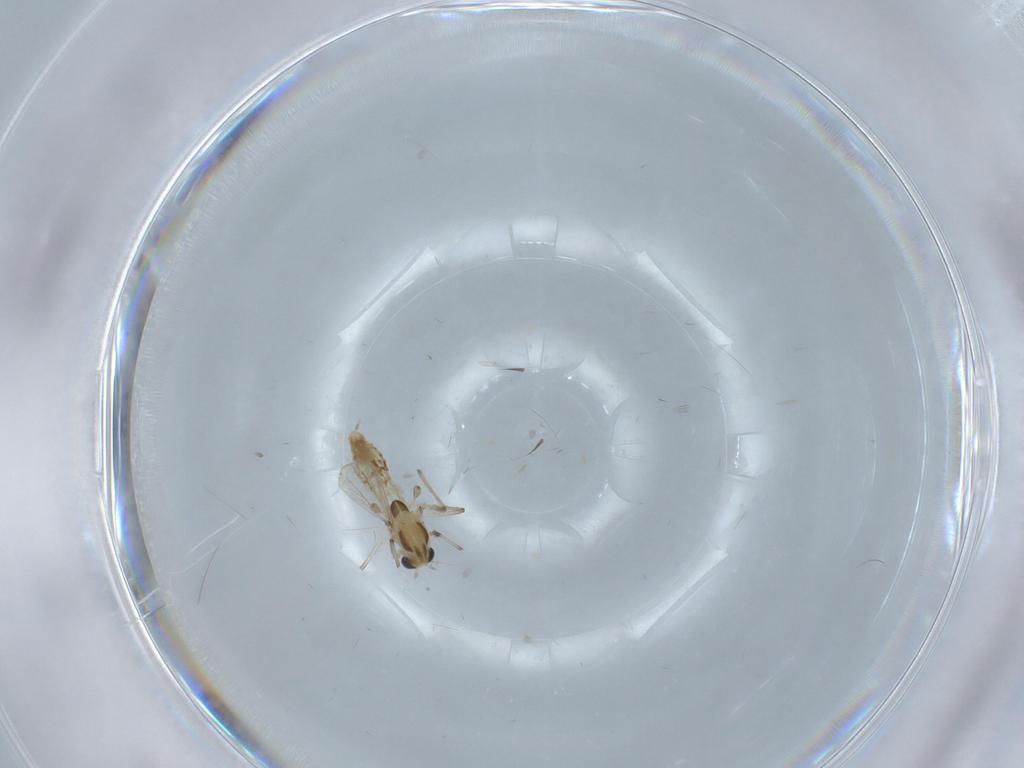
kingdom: Animalia
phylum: Arthropoda
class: Insecta
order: Diptera
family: Chironomidae
